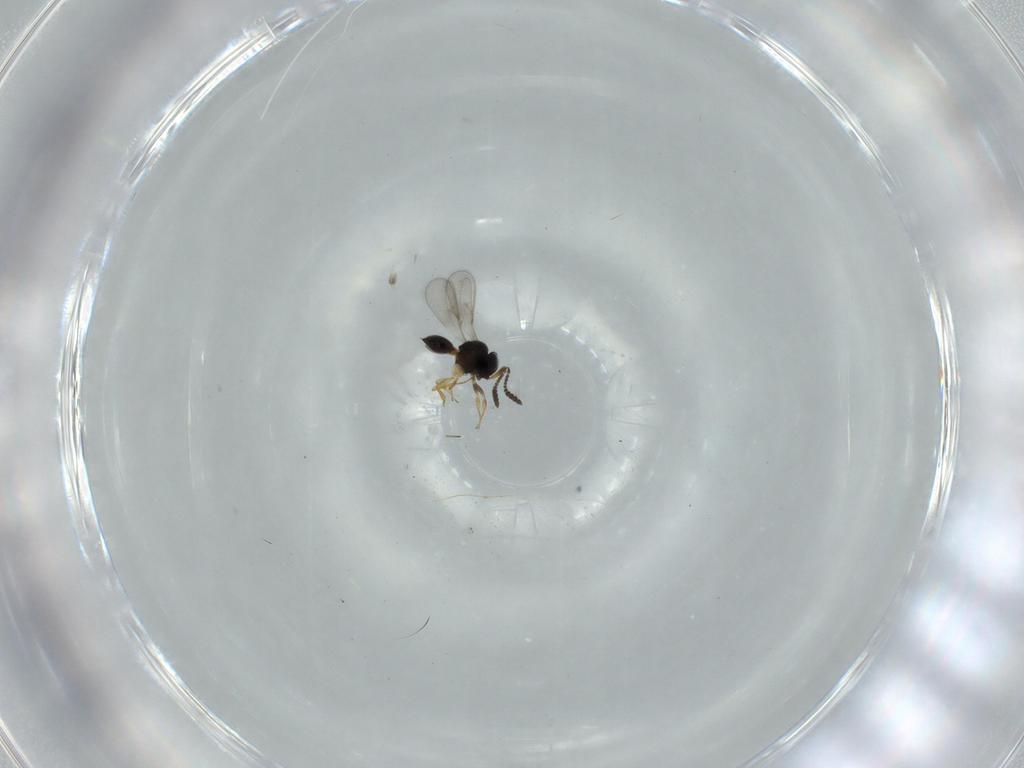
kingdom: Animalia
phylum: Arthropoda
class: Insecta
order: Hymenoptera
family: Scelionidae
